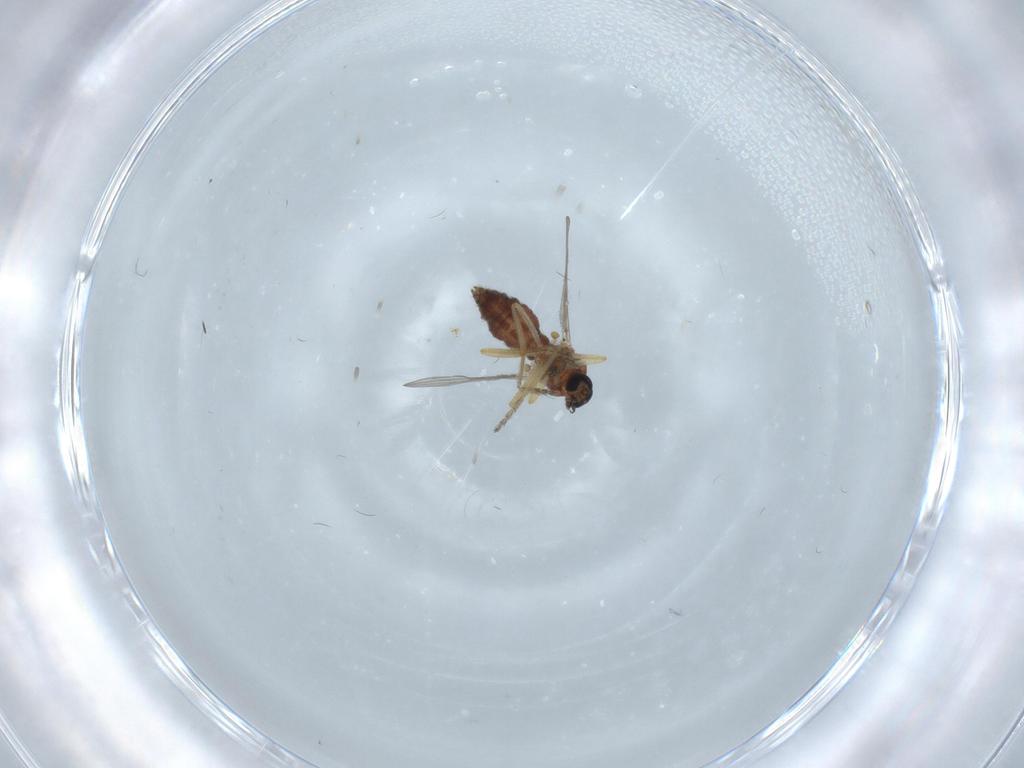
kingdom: Animalia
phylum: Arthropoda
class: Insecta
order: Diptera
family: Ceratopogonidae
